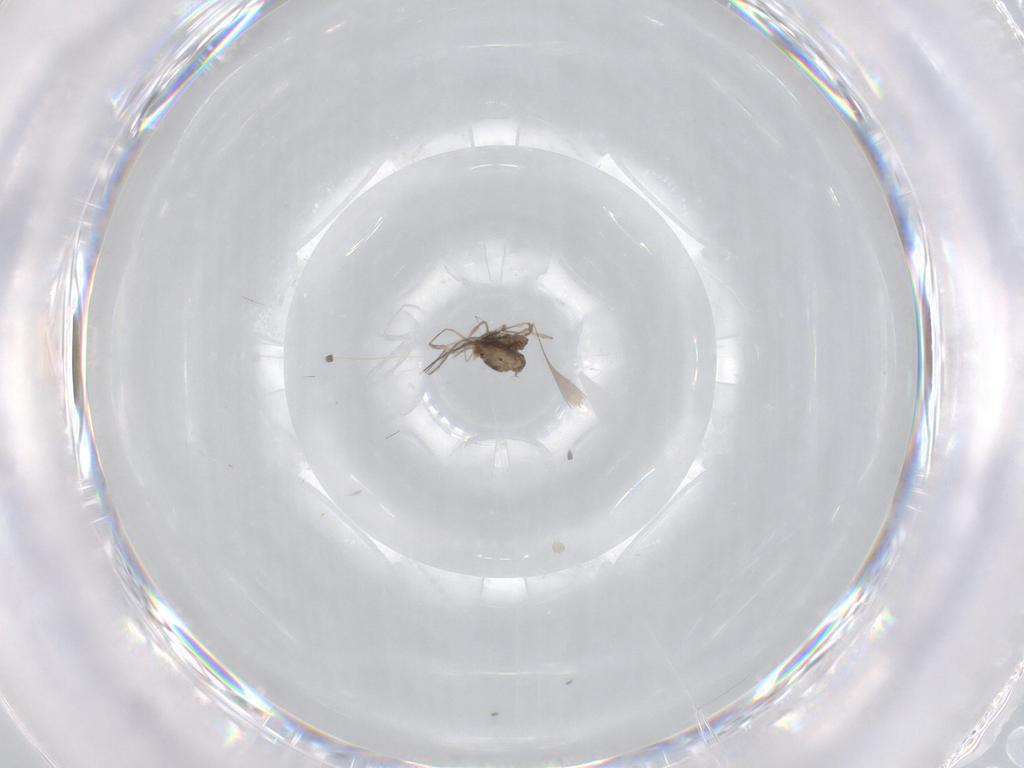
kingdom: Animalia
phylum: Arthropoda
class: Insecta
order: Diptera
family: Cecidomyiidae
